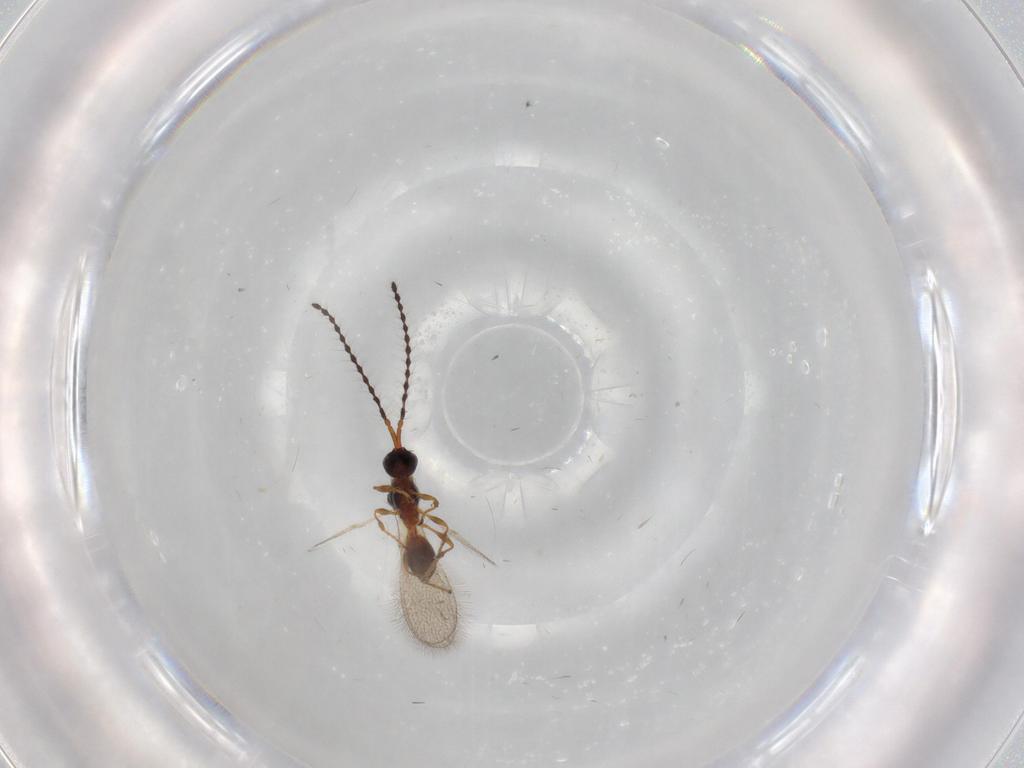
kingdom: Animalia
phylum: Arthropoda
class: Insecta
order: Hymenoptera
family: Diapriidae
